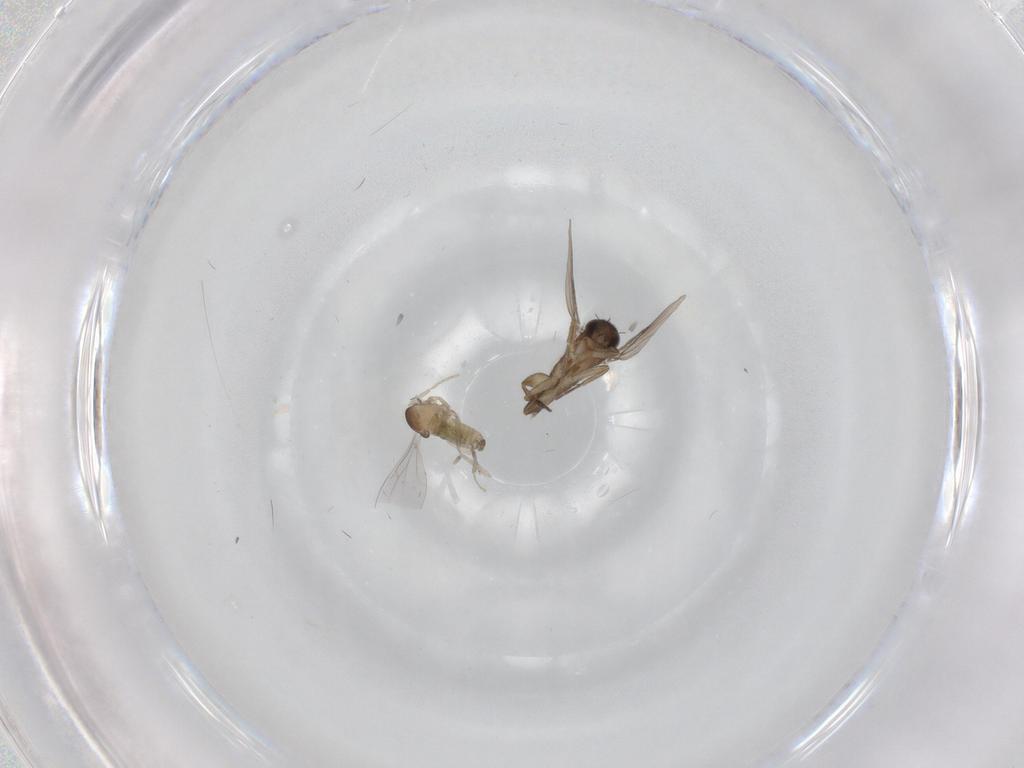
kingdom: Animalia
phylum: Arthropoda
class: Insecta
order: Diptera
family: Cecidomyiidae
